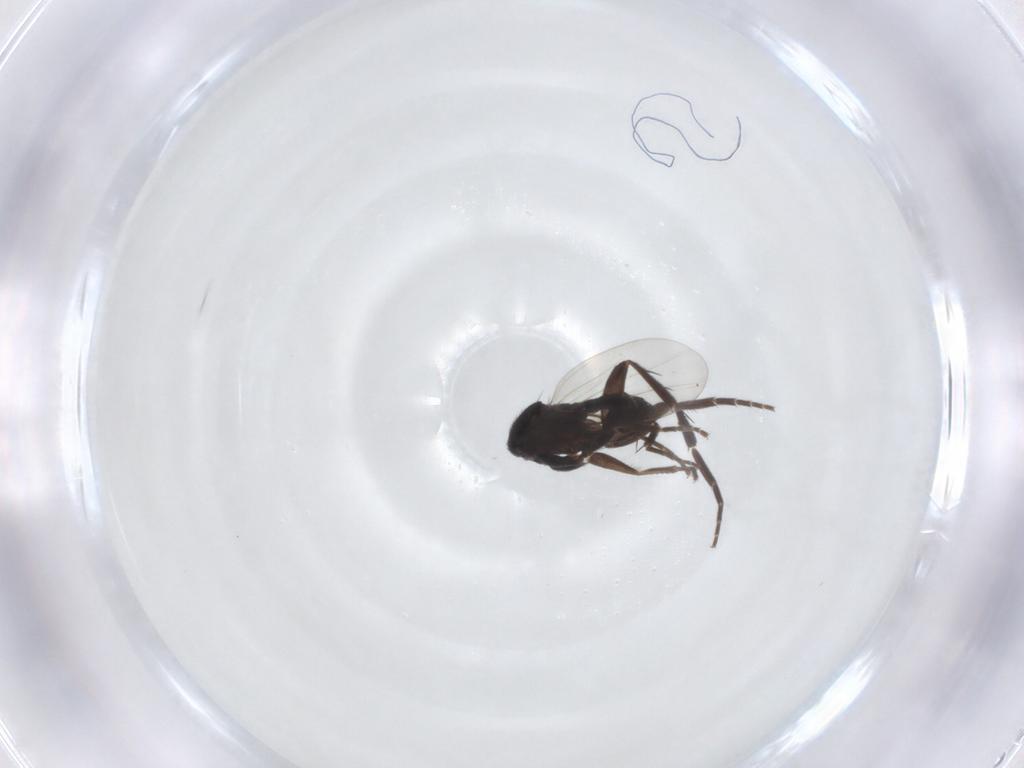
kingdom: Animalia
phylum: Arthropoda
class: Insecta
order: Diptera
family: Phoridae
